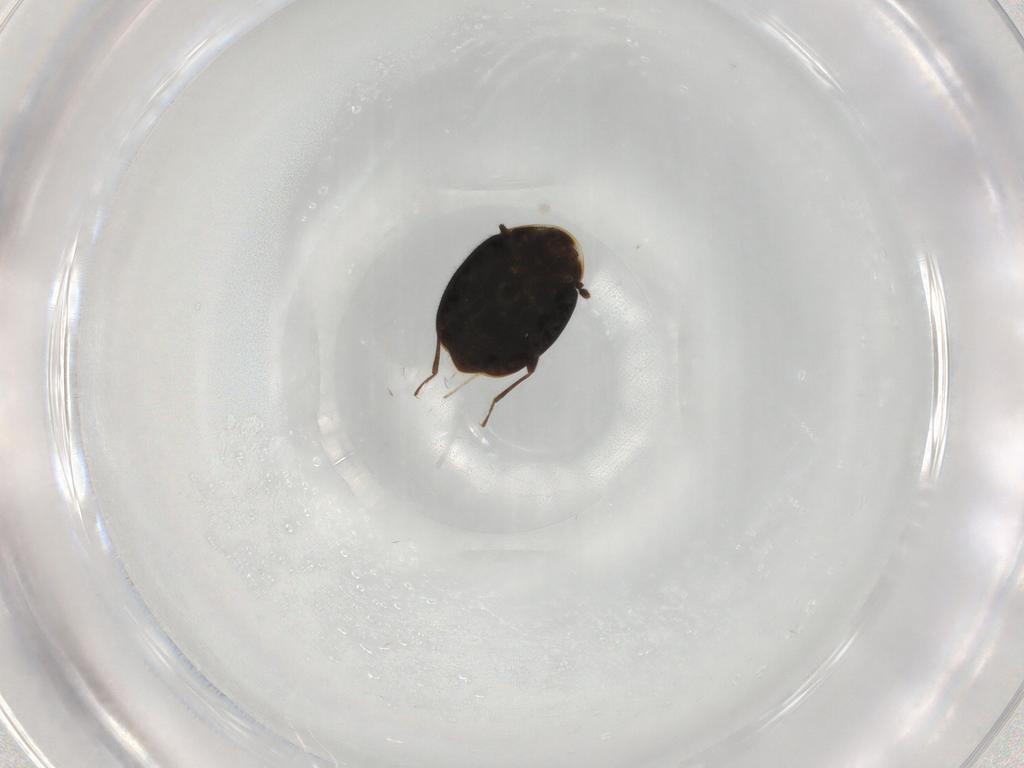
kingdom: Animalia
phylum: Arthropoda
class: Insecta
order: Coleoptera
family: Corylophidae
